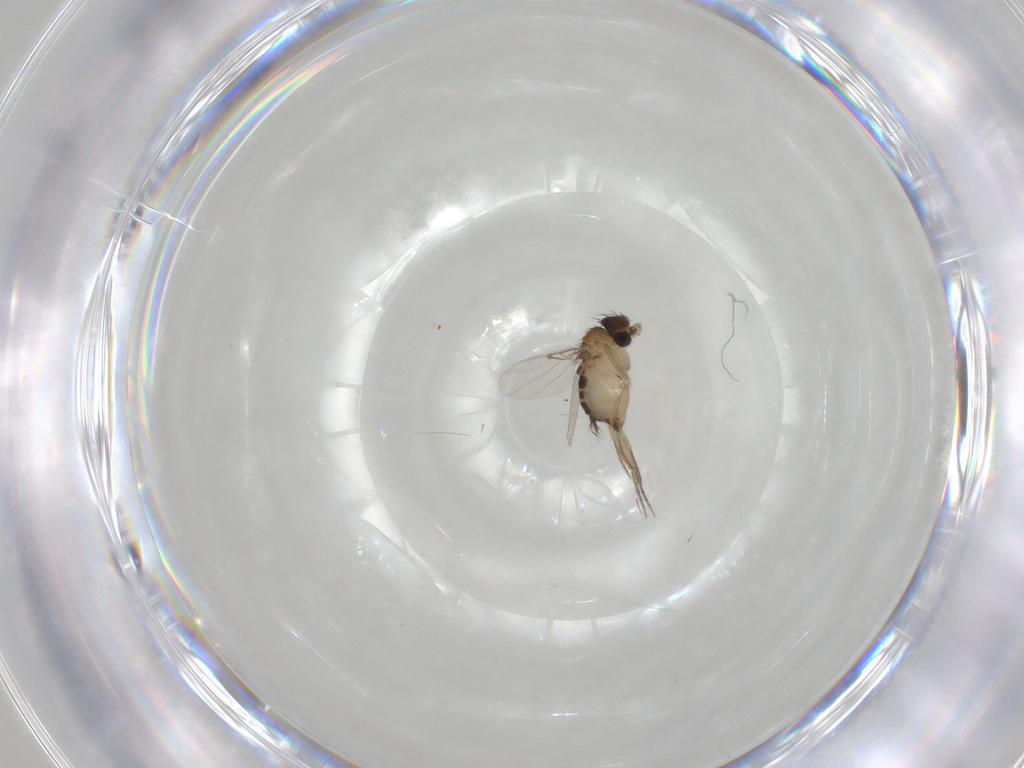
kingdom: Animalia
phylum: Arthropoda
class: Insecta
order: Diptera
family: Phoridae
